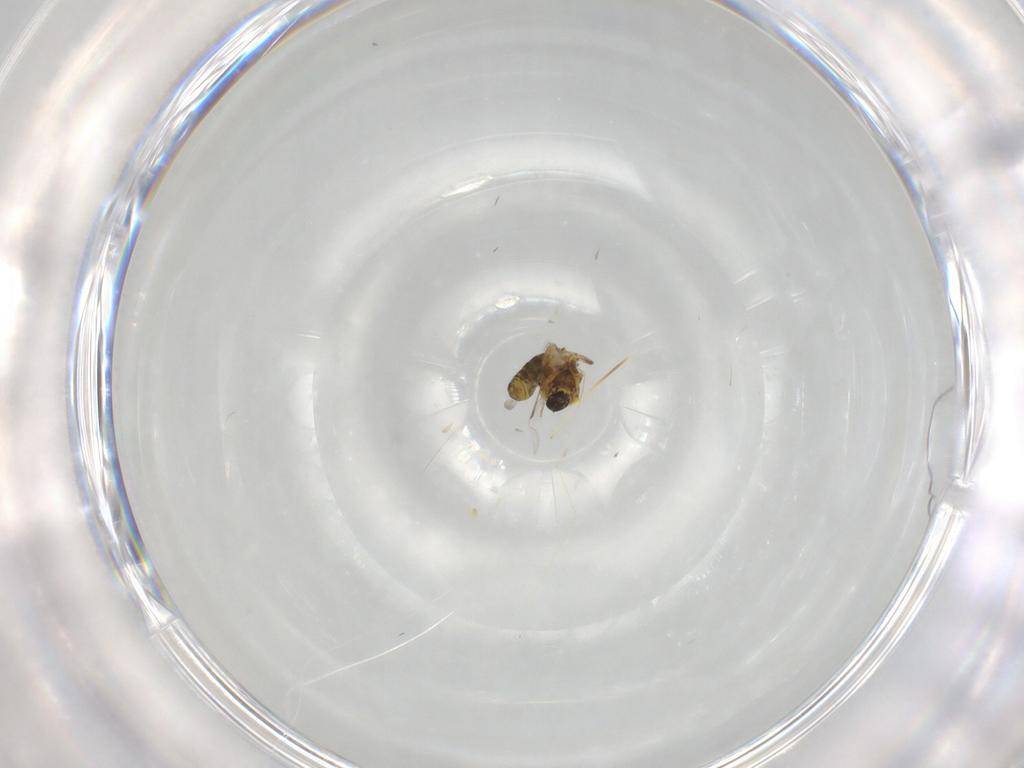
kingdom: Animalia
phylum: Arthropoda
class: Insecta
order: Diptera
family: Ceratopogonidae
